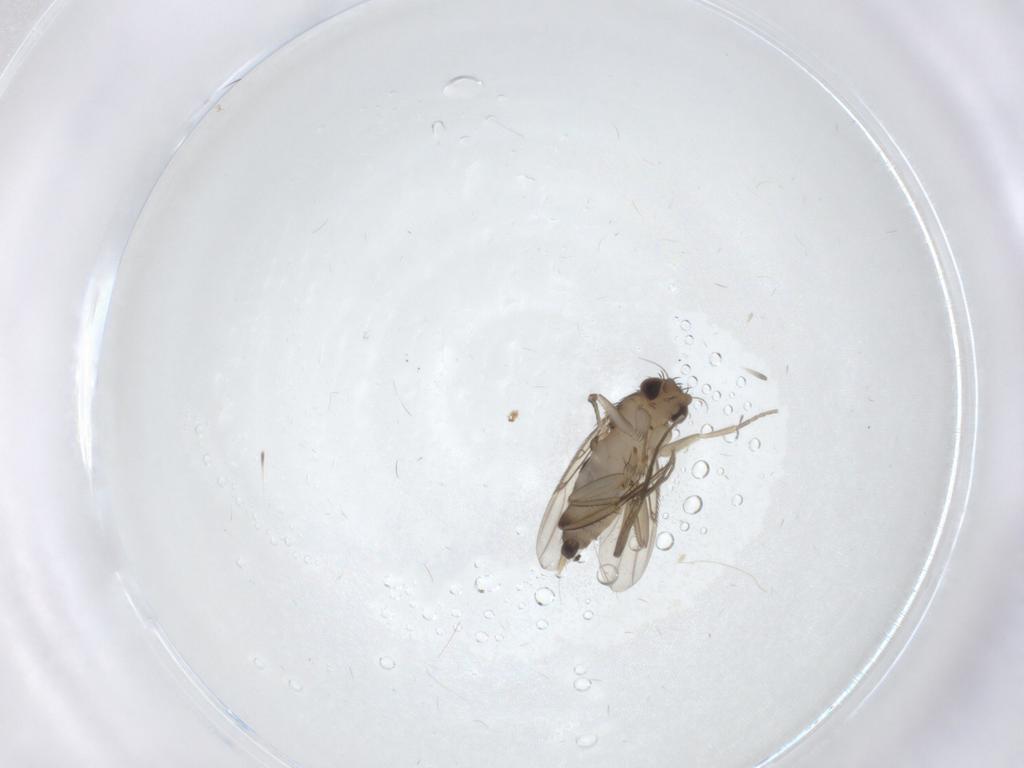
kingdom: Animalia
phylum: Arthropoda
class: Insecta
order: Diptera
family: Phoridae
